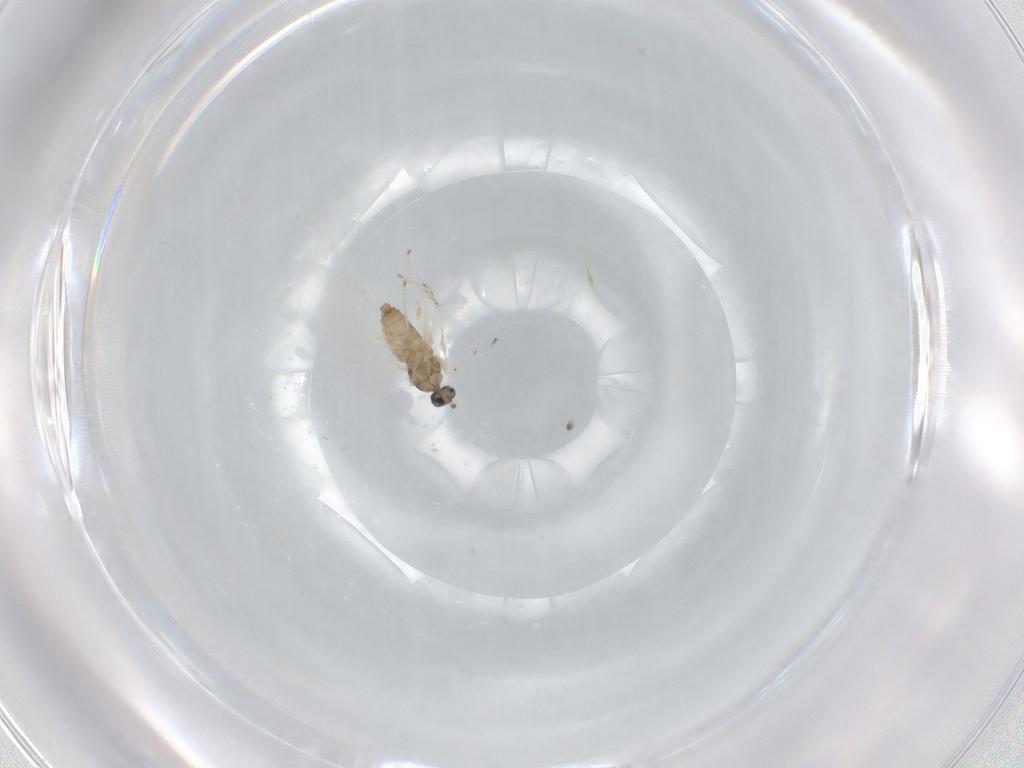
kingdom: Animalia
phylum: Arthropoda
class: Insecta
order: Diptera
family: Cecidomyiidae
